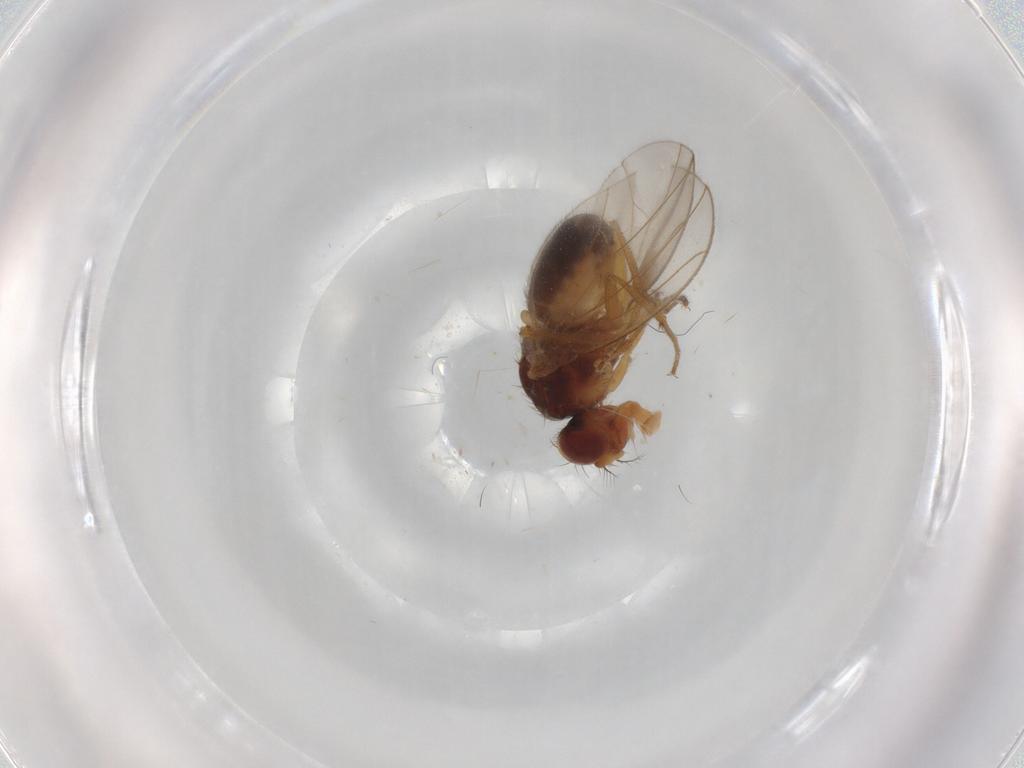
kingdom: Animalia
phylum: Arthropoda
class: Insecta
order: Diptera
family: Drosophilidae
